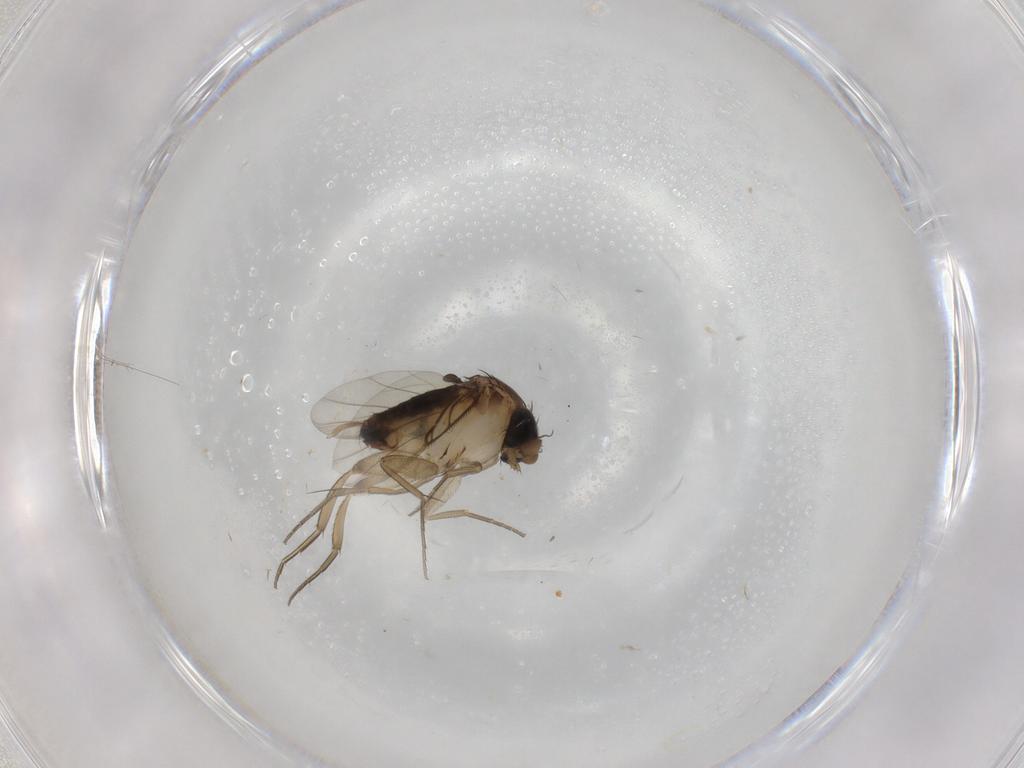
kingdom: Animalia
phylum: Arthropoda
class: Insecta
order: Diptera
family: Phoridae
